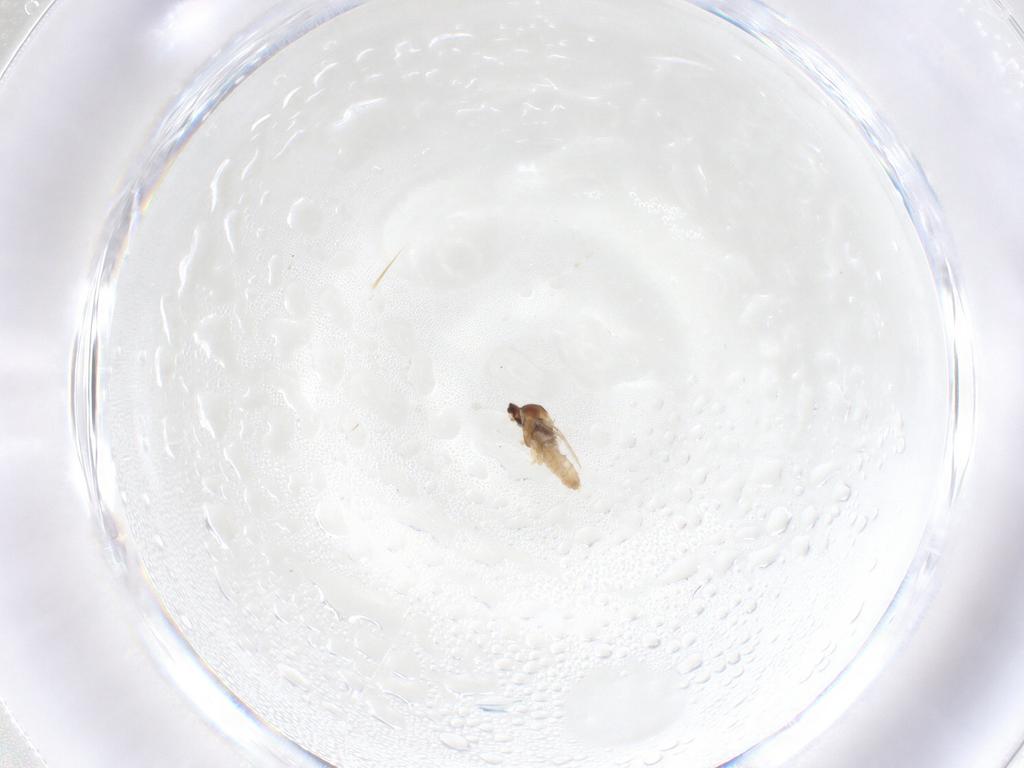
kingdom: Animalia
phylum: Arthropoda
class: Insecta
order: Diptera
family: Cecidomyiidae
